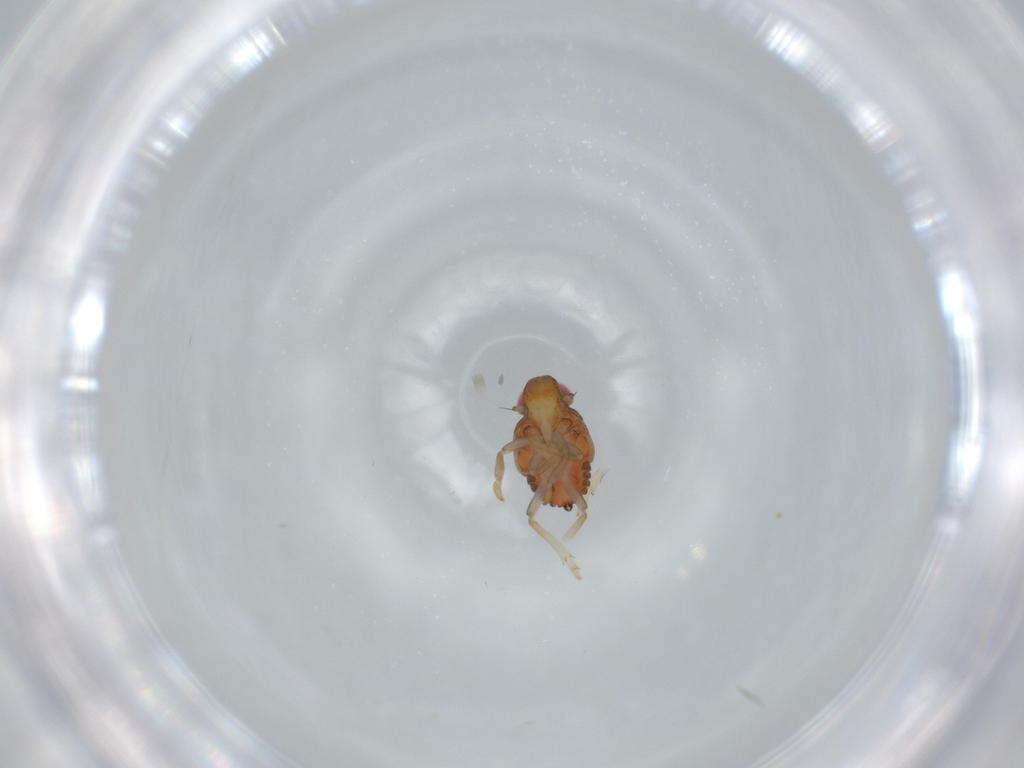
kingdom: Animalia
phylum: Arthropoda
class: Insecta
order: Hemiptera
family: Issidae
